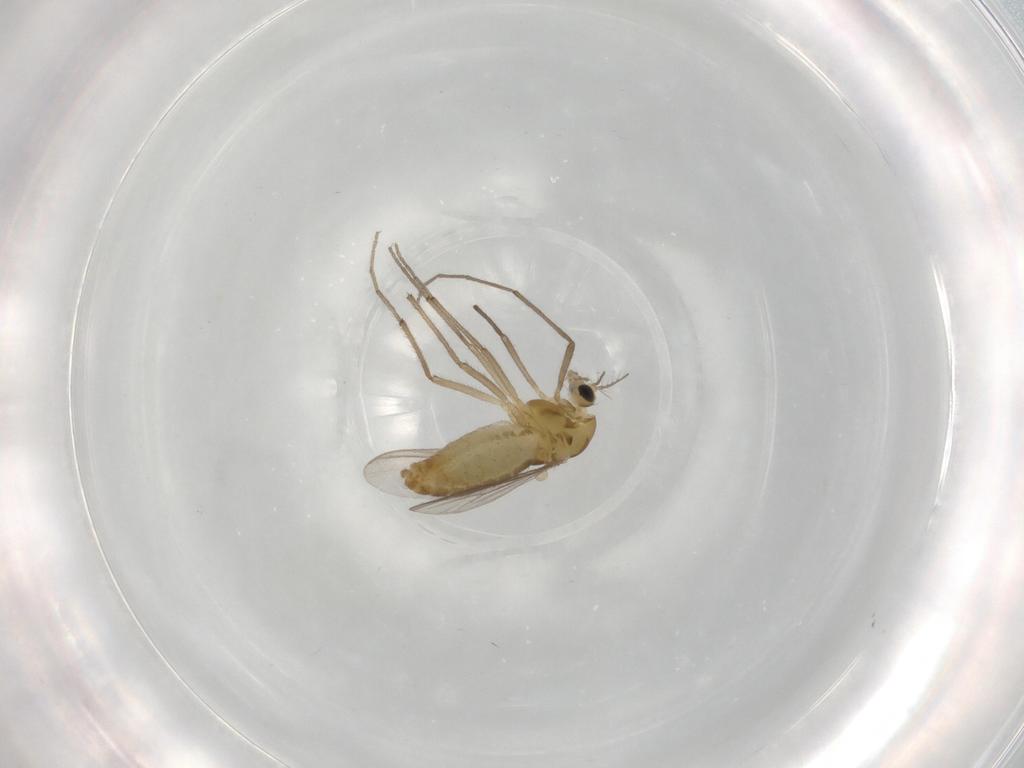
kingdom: Animalia
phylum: Arthropoda
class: Insecta
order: Diptera
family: Chironomidae
